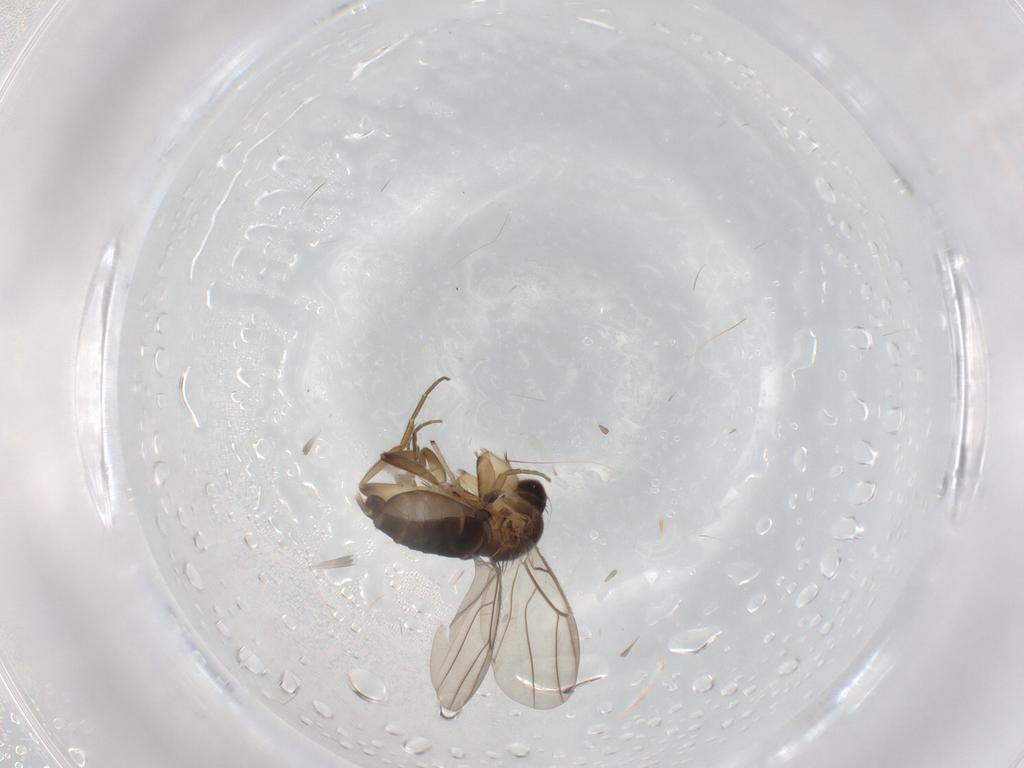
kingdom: Animalia
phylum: Arthropoda
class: Insecta
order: Diptera
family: Phoridae
